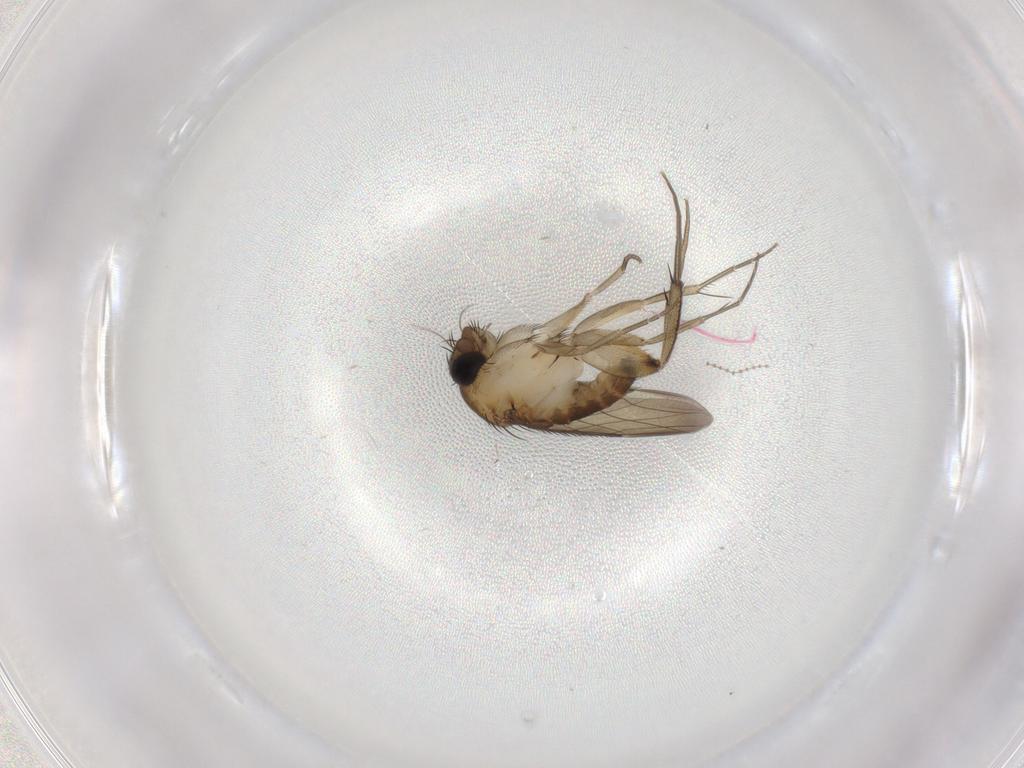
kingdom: Animalia
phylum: Arthropoda
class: Insecta
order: Diptera
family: Phoridae
